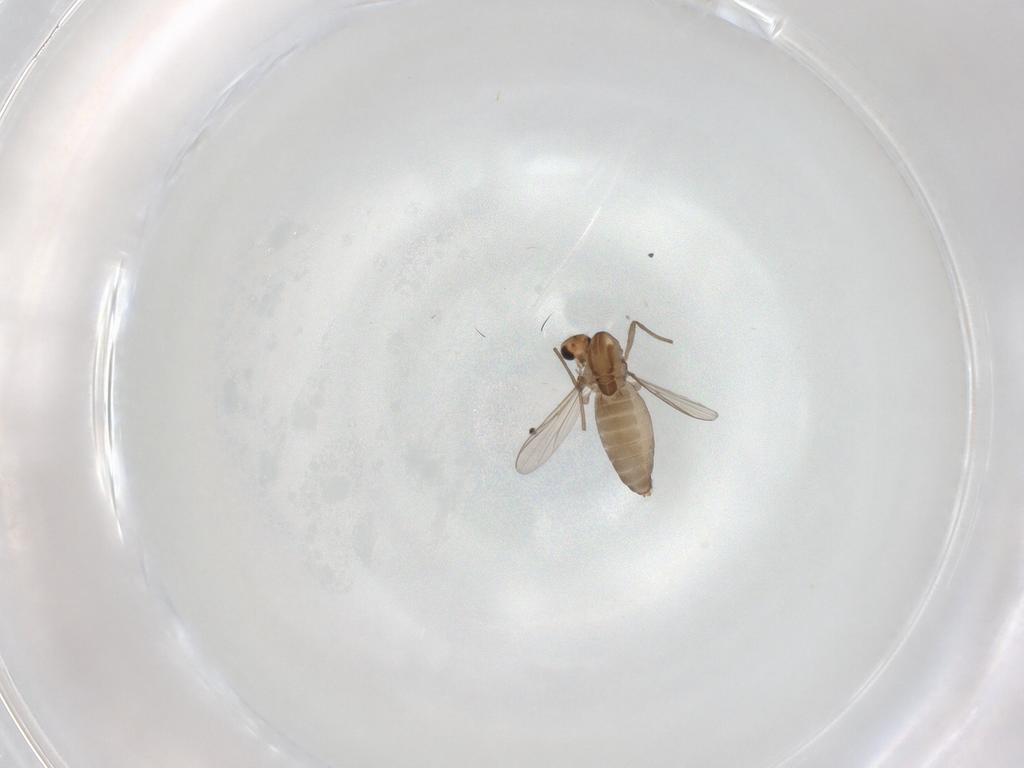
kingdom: Animalia
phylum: Arthropoda
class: Insecta
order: Diptera
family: Chironomidae
